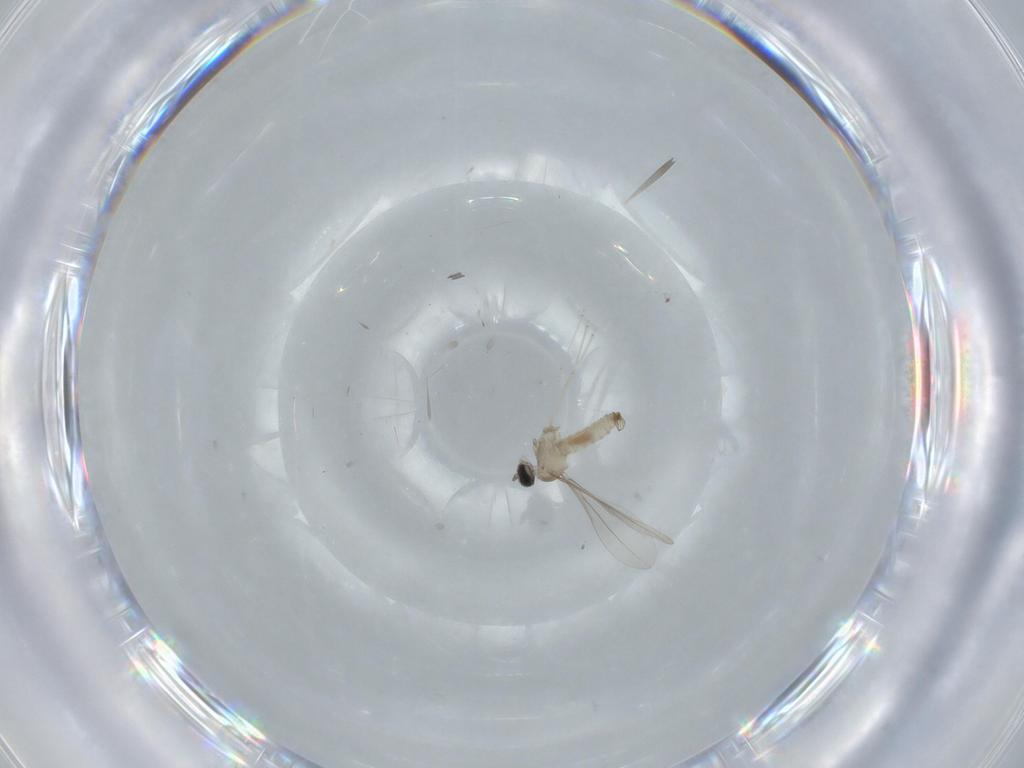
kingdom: Animalia
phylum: Arthropoda
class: Insecta
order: Diptera
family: Cecidomyiidae
